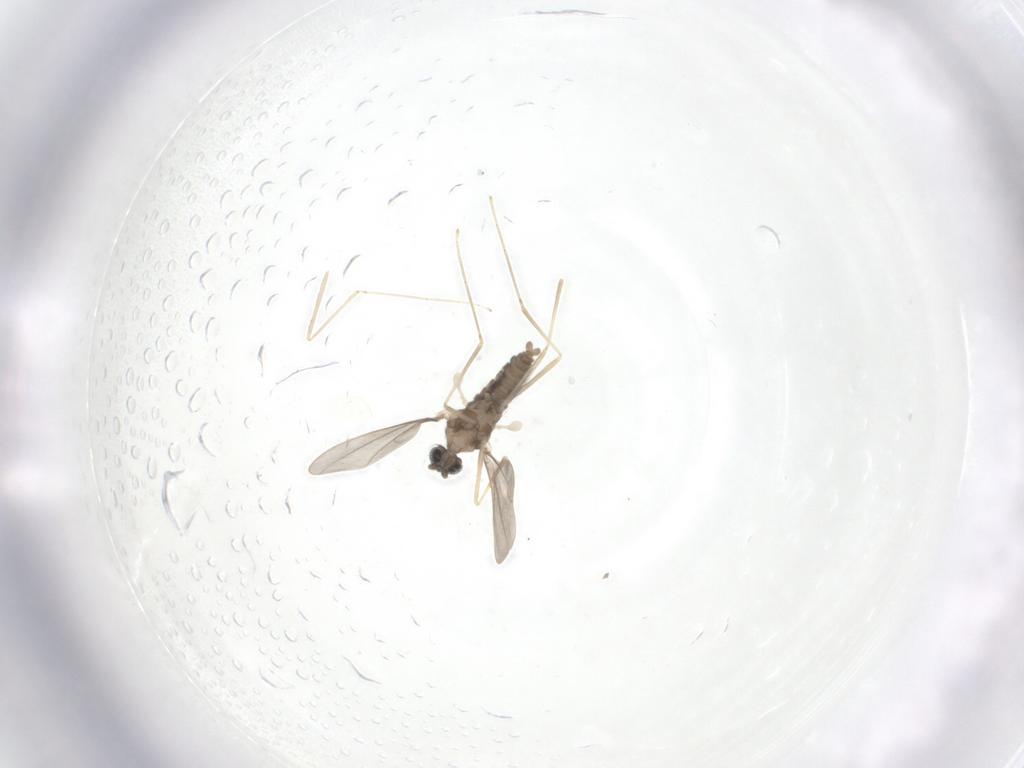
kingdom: Animalia
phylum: Arthropoda
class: Insecta
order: Diptera
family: Cecidomyiidae
